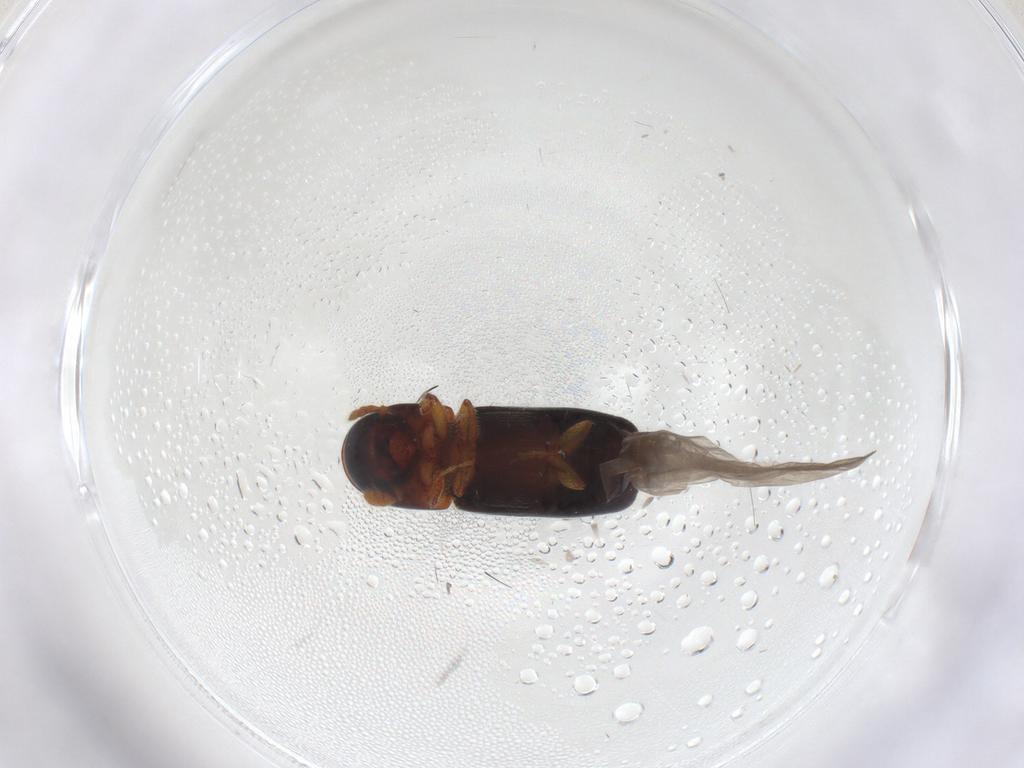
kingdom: Animalia
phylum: Arthropoda
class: Insecta
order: Coleoptera
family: Curculionidae
